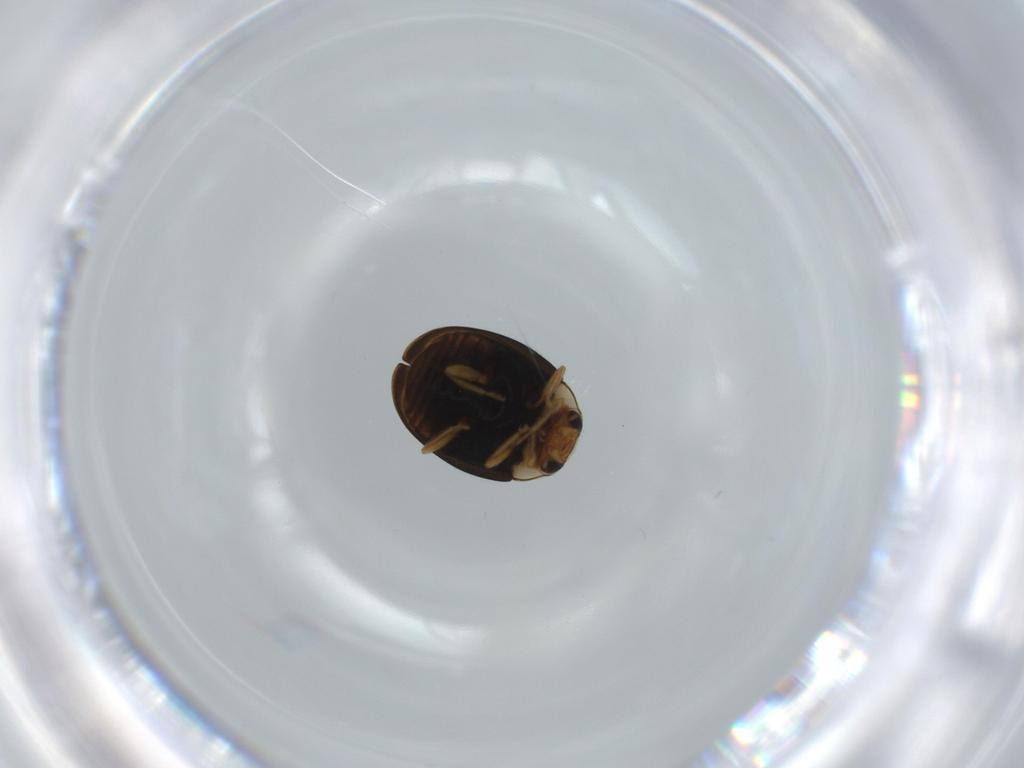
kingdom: Animalia
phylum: Arthropoda
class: Insecta
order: Coleoptera
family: Coccinellidae
